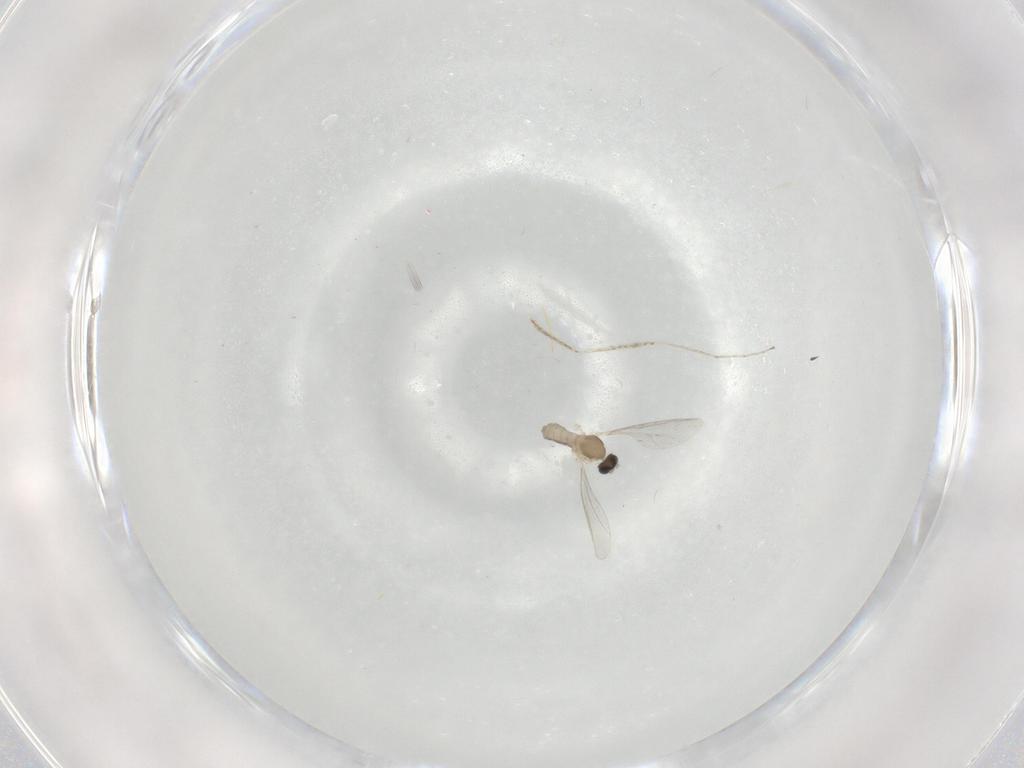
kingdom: Animalia
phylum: Arthropoda
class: Insecta
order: Diptera
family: Cecidomyiidae
